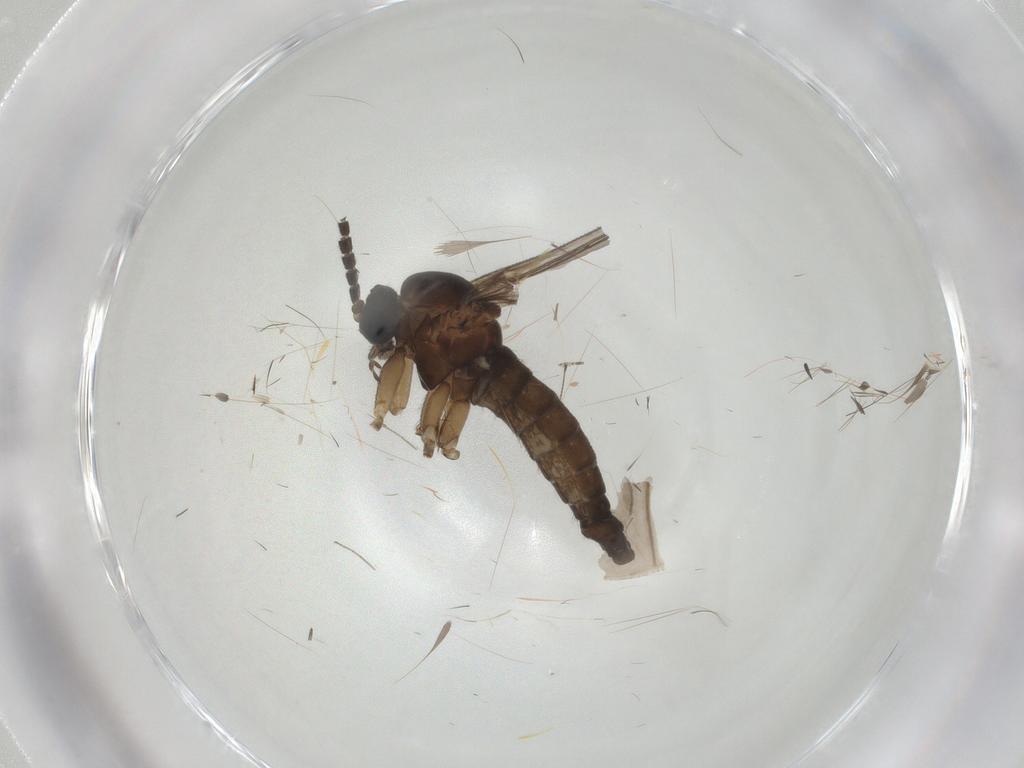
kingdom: Animalia
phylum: Arthropoda
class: Insecta
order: Diptera
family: Sciaridae
